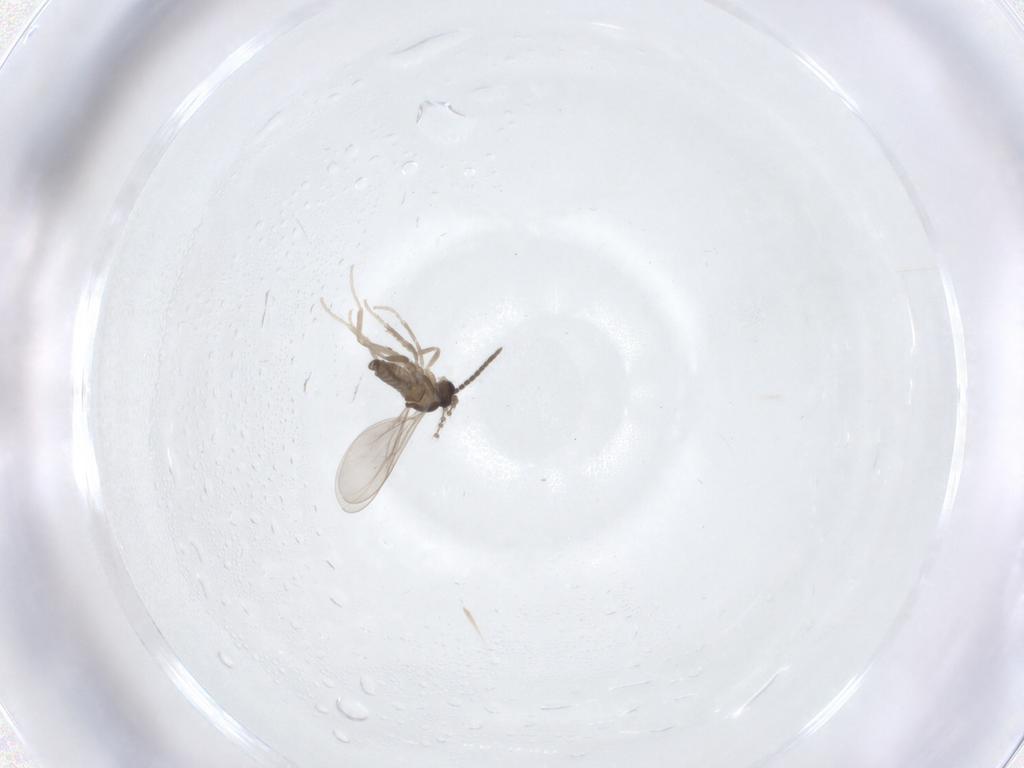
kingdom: Animalia
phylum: Arthropoda
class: Insecta
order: Diptera
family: Cecidomyiidae
